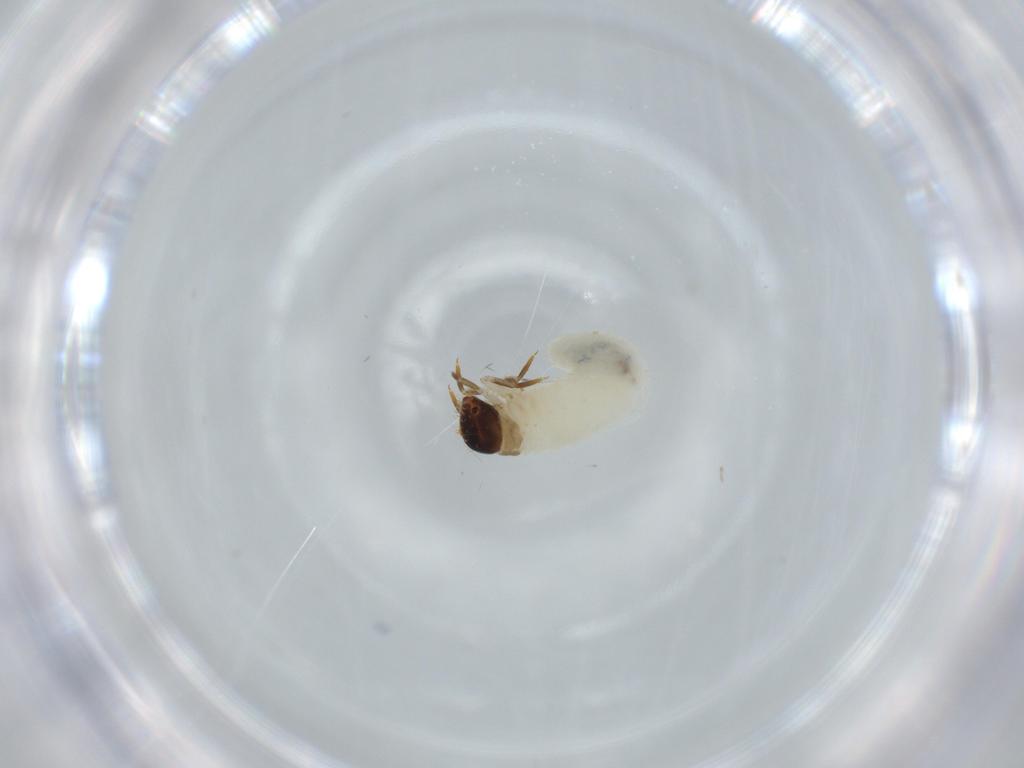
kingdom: Animalia
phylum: Arthropoda
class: Insecta
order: Coleoptera
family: Chrysomelidae
